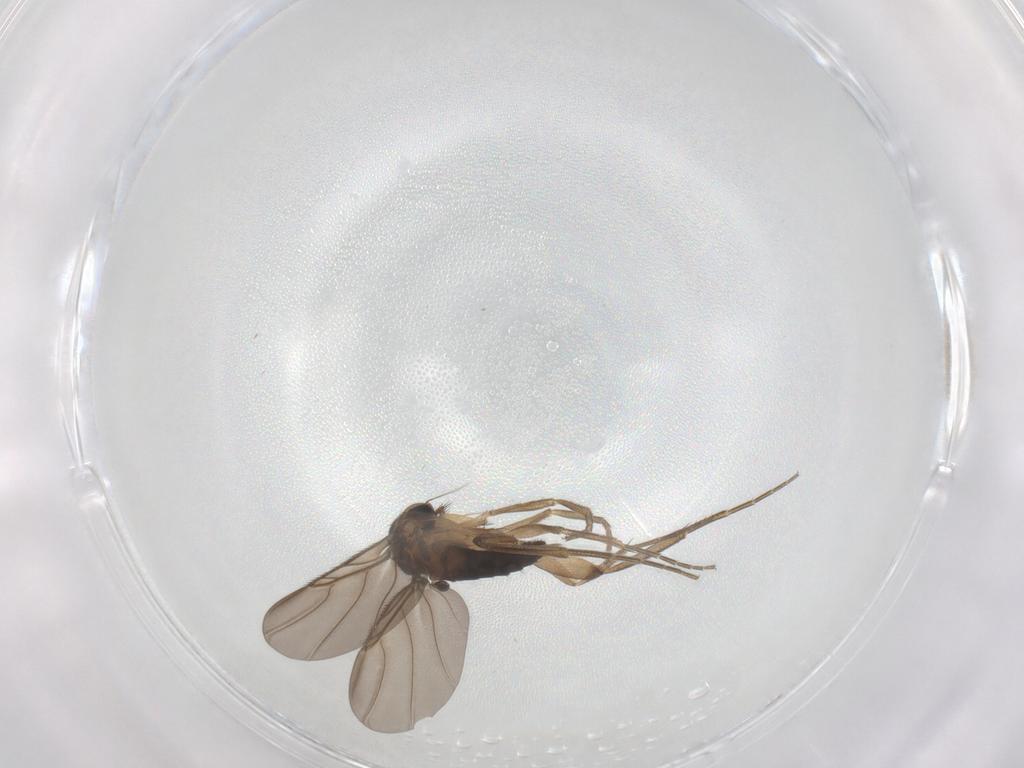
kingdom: Animalia
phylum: Arthropoda
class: Insecta
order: Diptera
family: Phoridae
